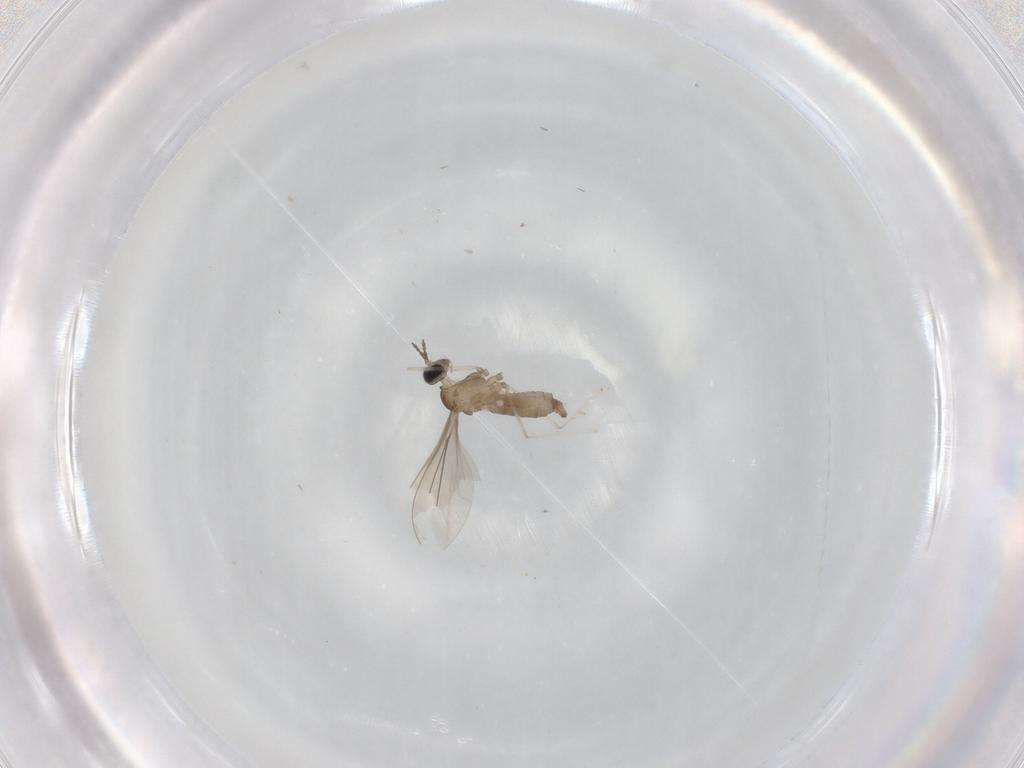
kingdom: Animalia
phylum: Arthropoda
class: Insecta
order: Diptera
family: Cecidomyiidae
